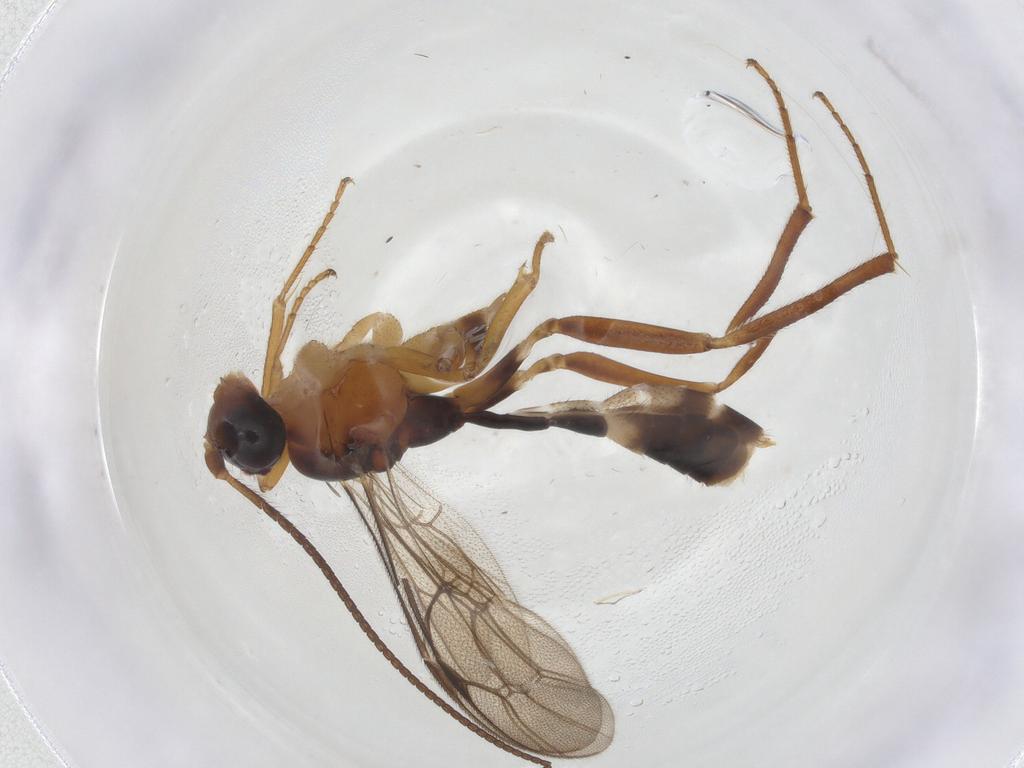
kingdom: Animalia
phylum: Arthropoda
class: Insecta
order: Hymenoptera
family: Ichneumonidae
